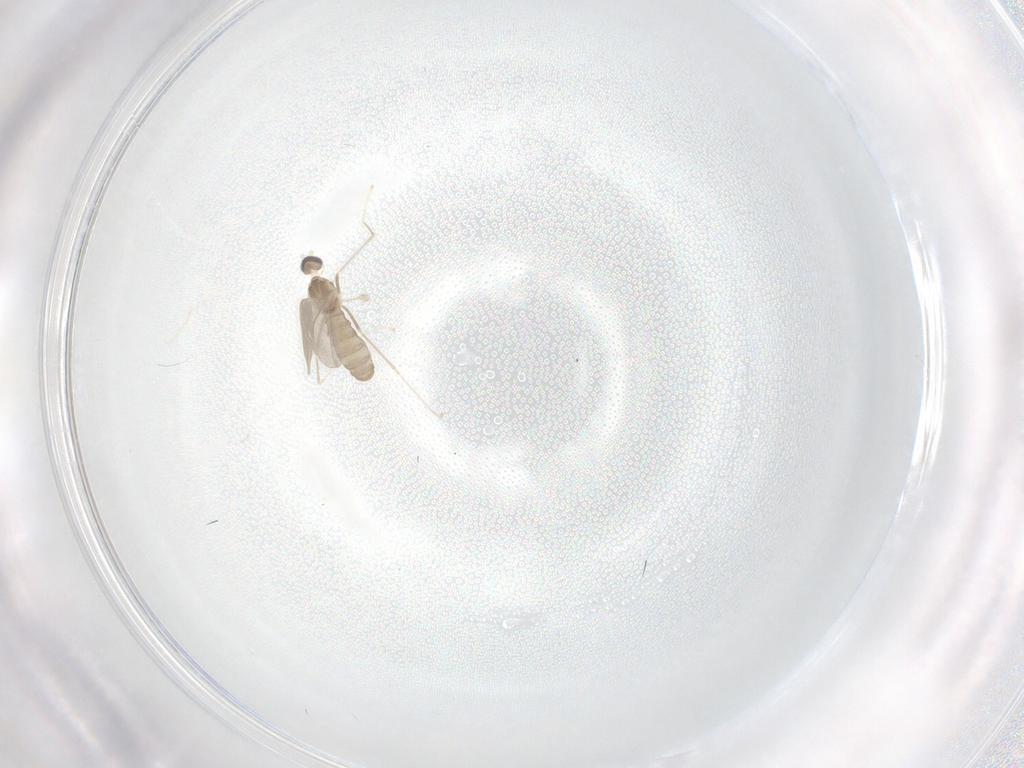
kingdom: Animalia
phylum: Arthropoda
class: Insecta
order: Diptera
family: Cecidomyiidae
